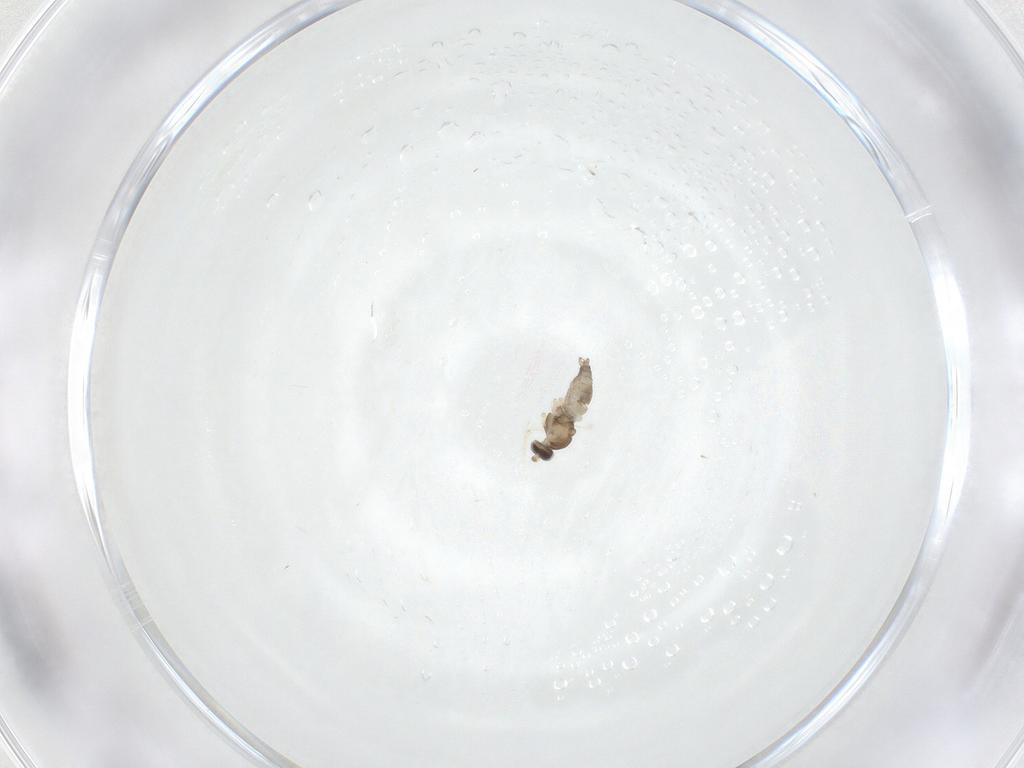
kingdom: Animalia
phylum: Arthropoda
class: Insecta
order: Diptera
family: Cecidomyiidae
